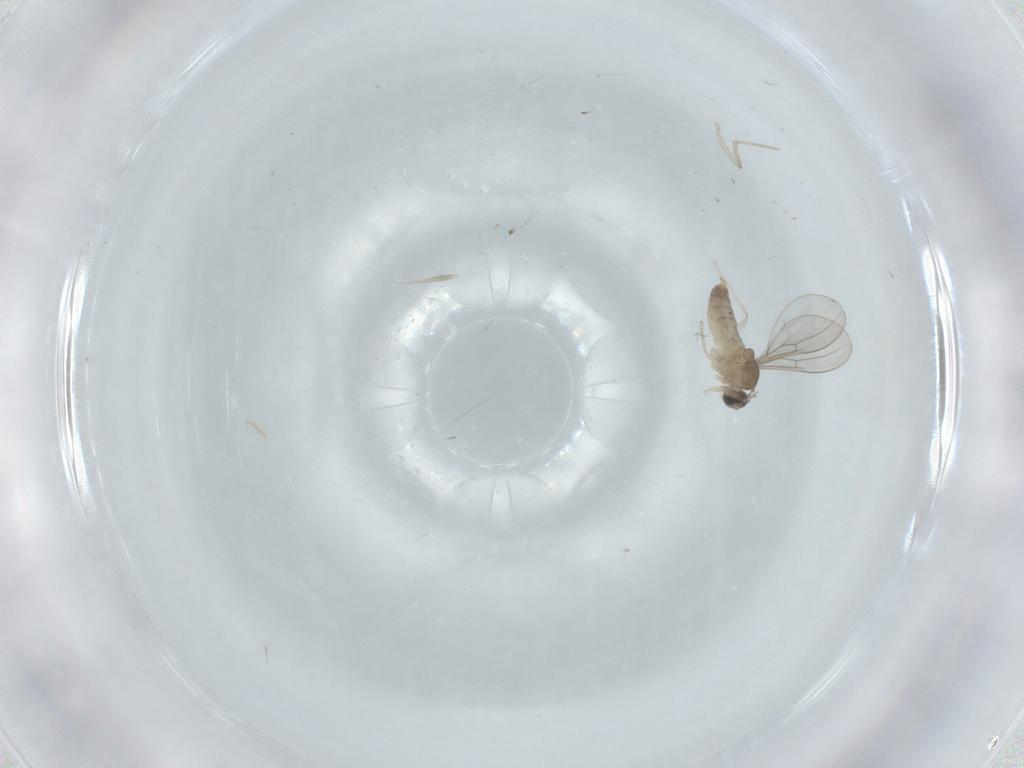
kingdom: Animalia
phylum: Arthropoda
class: Insecta
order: Diptera
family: Cecidomyiidae
